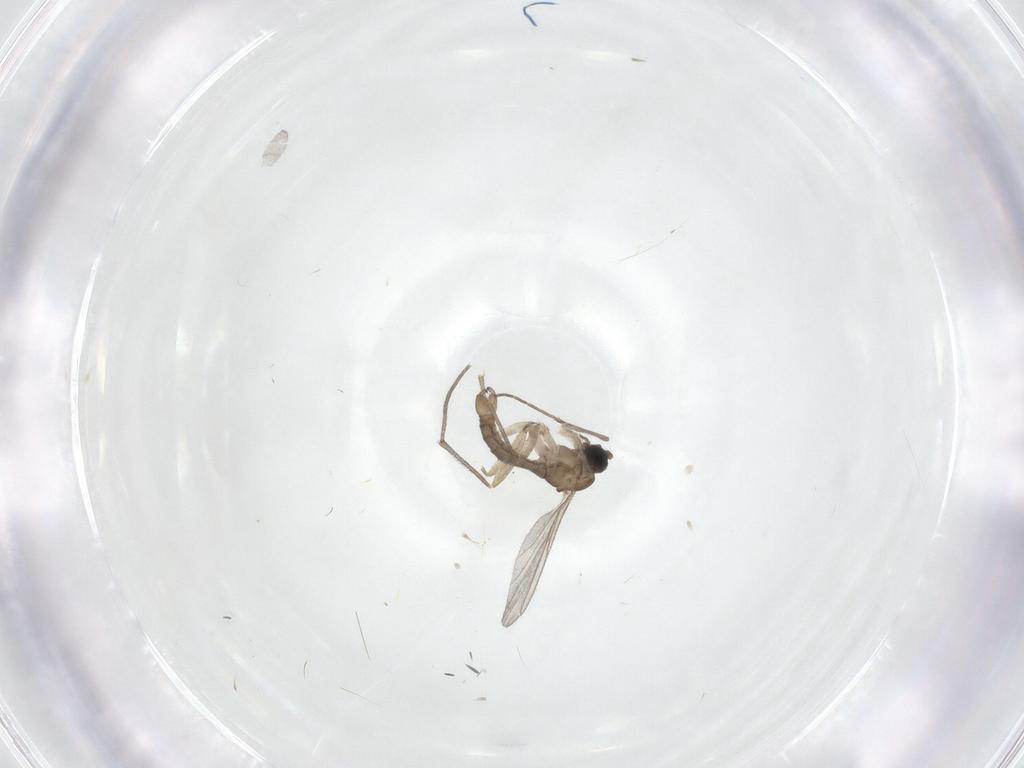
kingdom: Animalia
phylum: Arthropoda
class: Insecta
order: Diptera
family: Sciaridae
